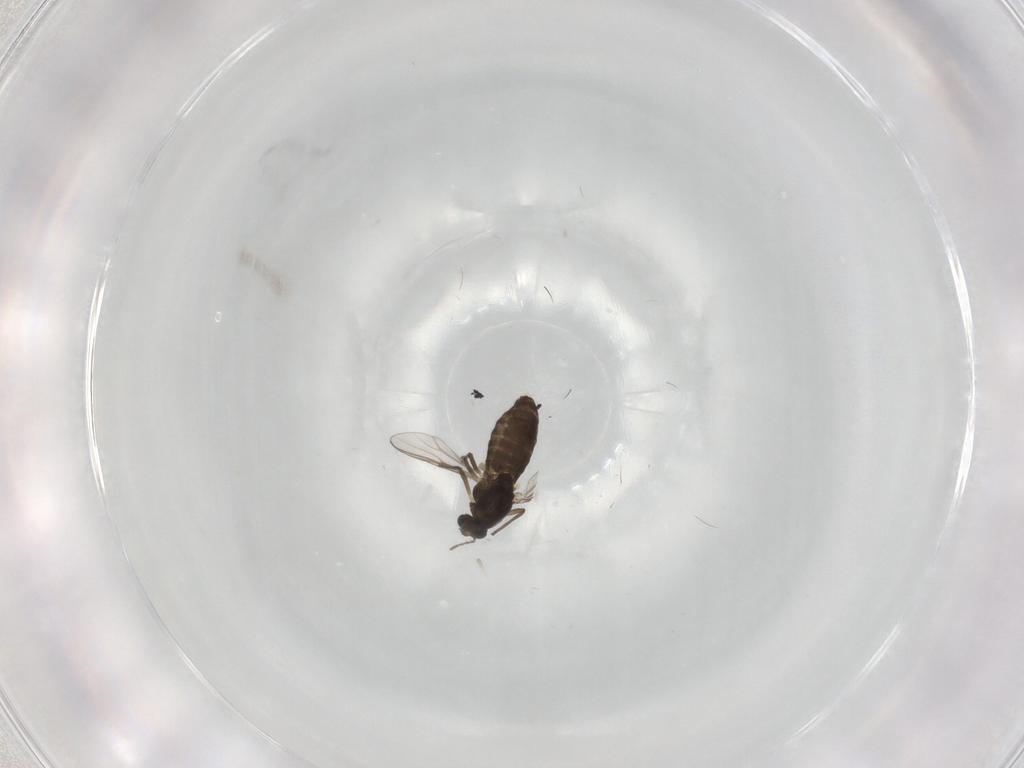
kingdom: Animalia
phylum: Arthropoda
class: Insecta
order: Diptera
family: Chironomidae
